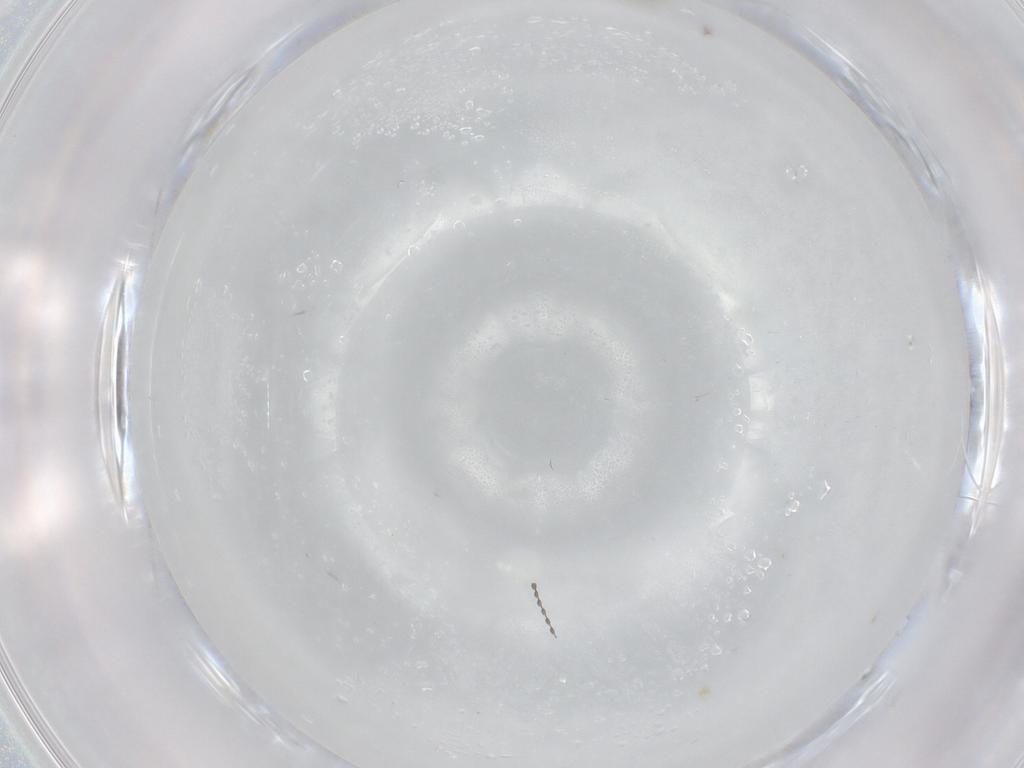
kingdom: Animalia
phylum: Arthropoda
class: Insecta
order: Diptera
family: Chironomidae
